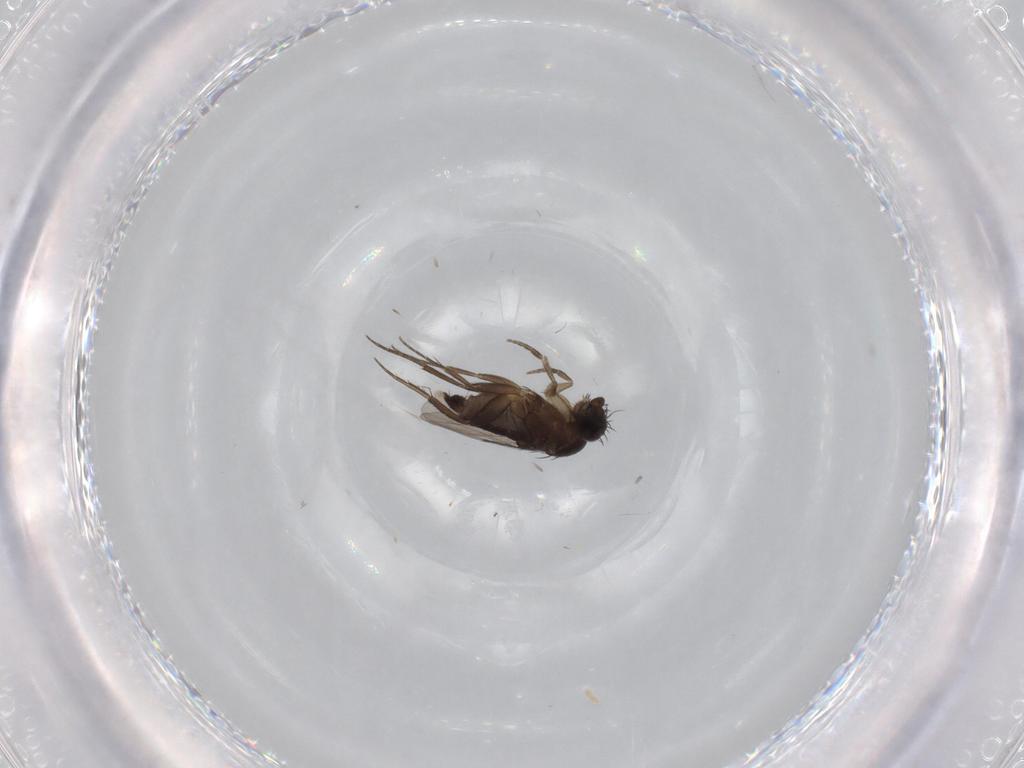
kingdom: Animalia
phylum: Arthropoda
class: Insecta
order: Diptera
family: Phoridae
